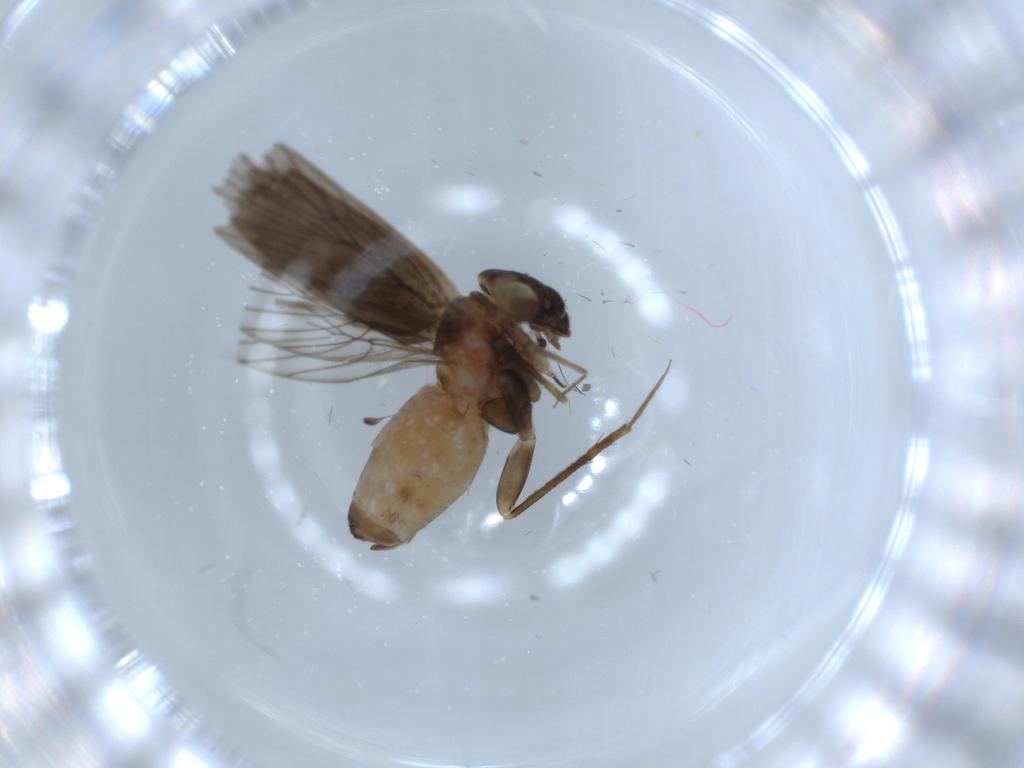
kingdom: Animalia
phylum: Arthropoda
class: Insecta
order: Psocodea
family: Lepidopsocidae
